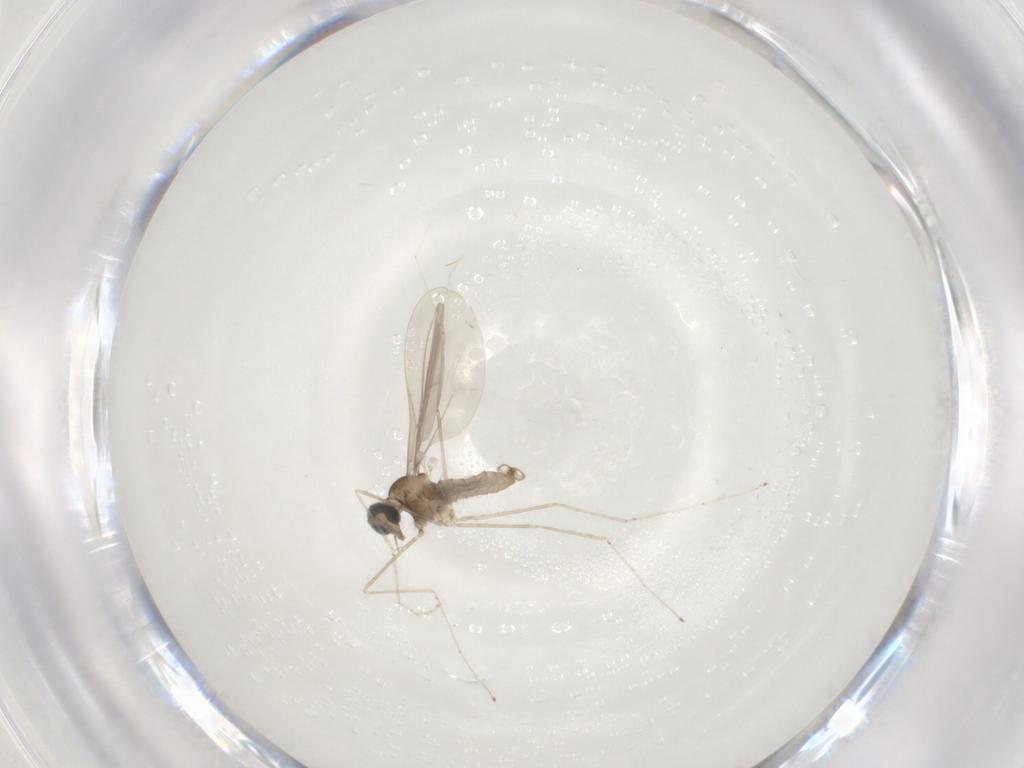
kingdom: Animalia
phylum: Arthropoda
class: Insecta
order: Diptera
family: Cecidomyiidae
